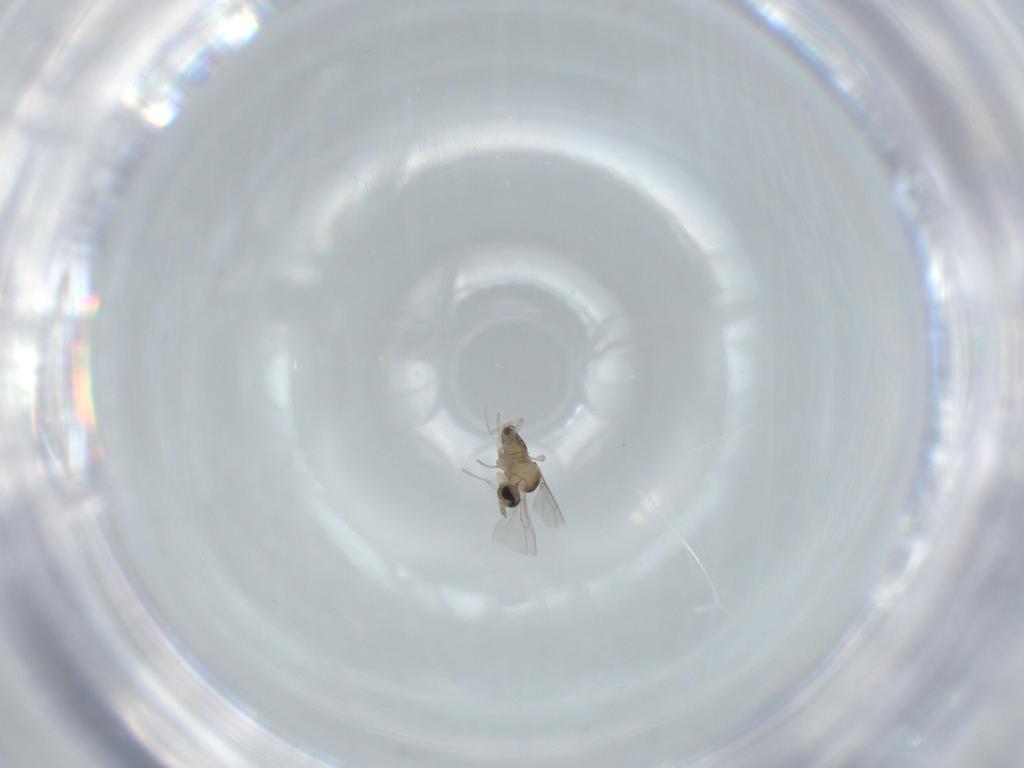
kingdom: Animalia
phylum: Arthropoda
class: Insecta
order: Diptera
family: Cecidomyiidae
